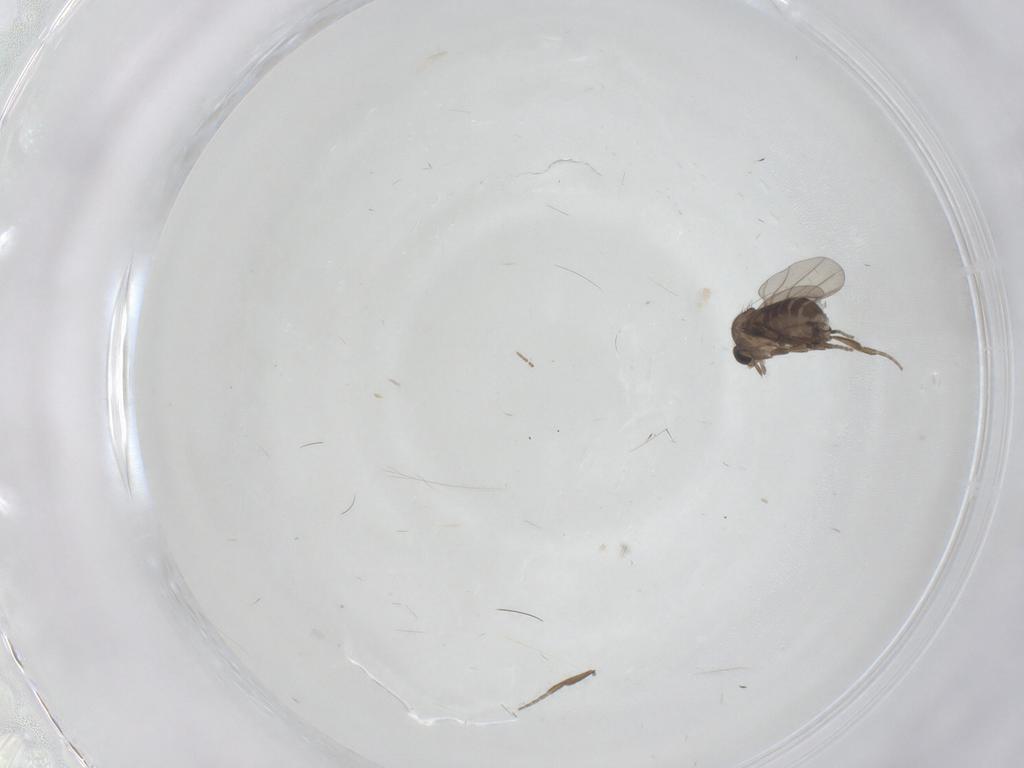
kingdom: Animalia
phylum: Arthropoda
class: Insecta
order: Diptera
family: Phoridae
